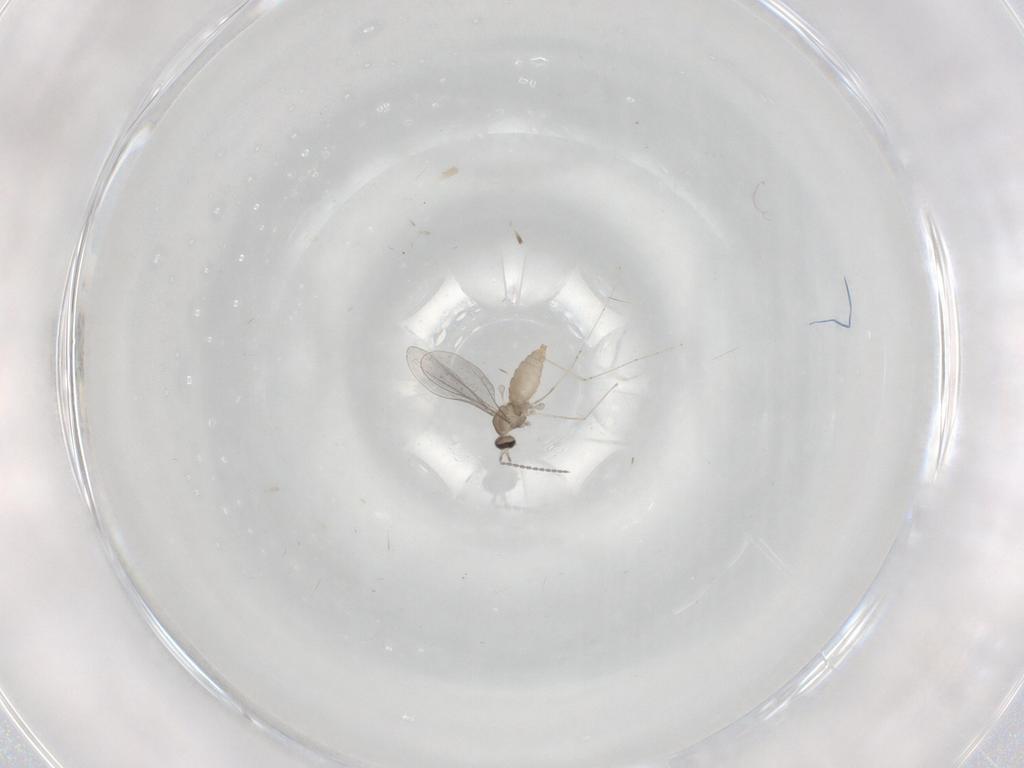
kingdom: Animalia
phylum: Arthropoda
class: Insecta
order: Diptera
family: Cecidomyiidae
